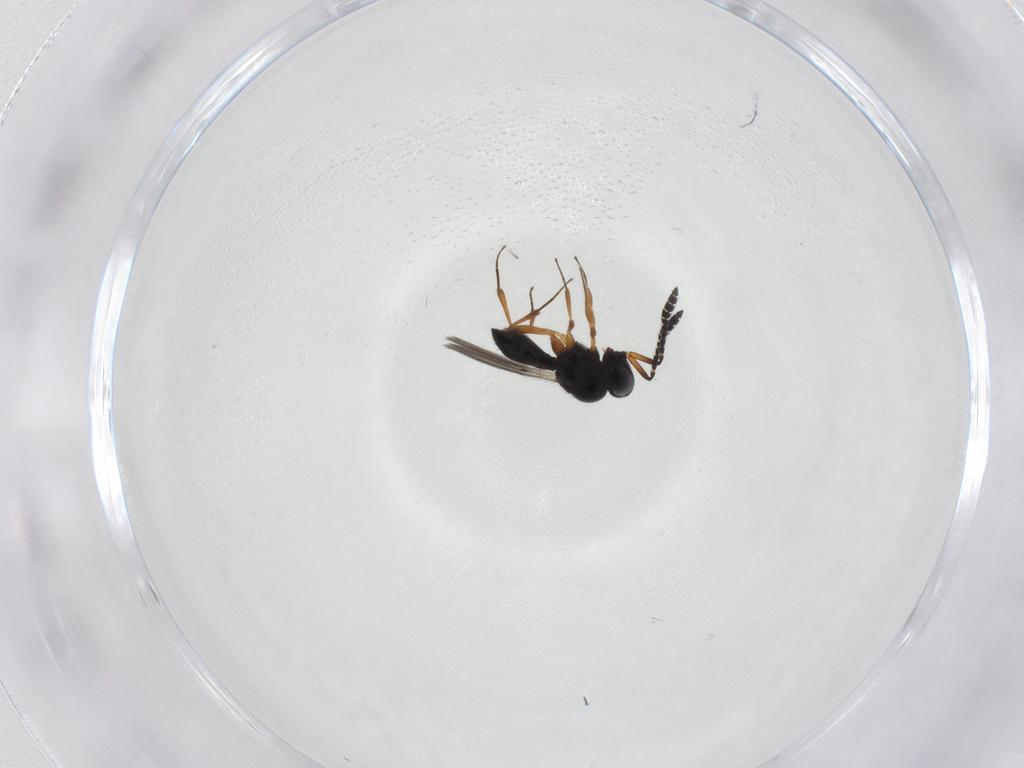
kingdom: Animalia
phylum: Arthropoda
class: Insecta
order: Hymenoptera
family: Scelionidae
